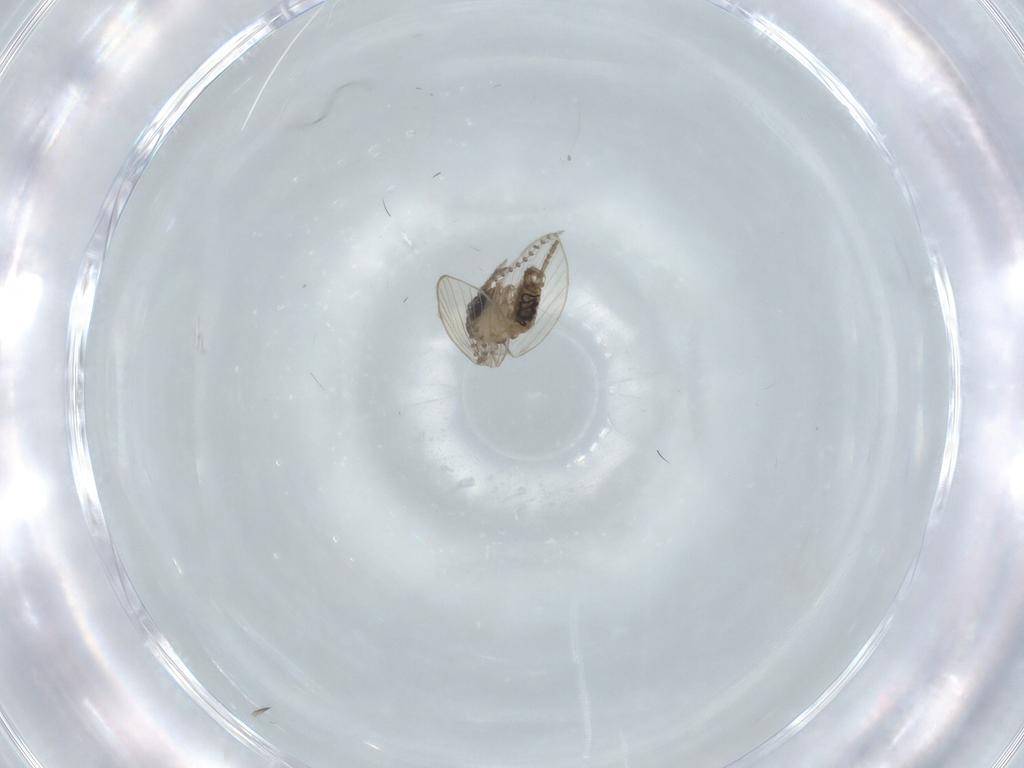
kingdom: Animalia
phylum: Arthropoda
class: Insecta
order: Diptera
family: Psychodidae
